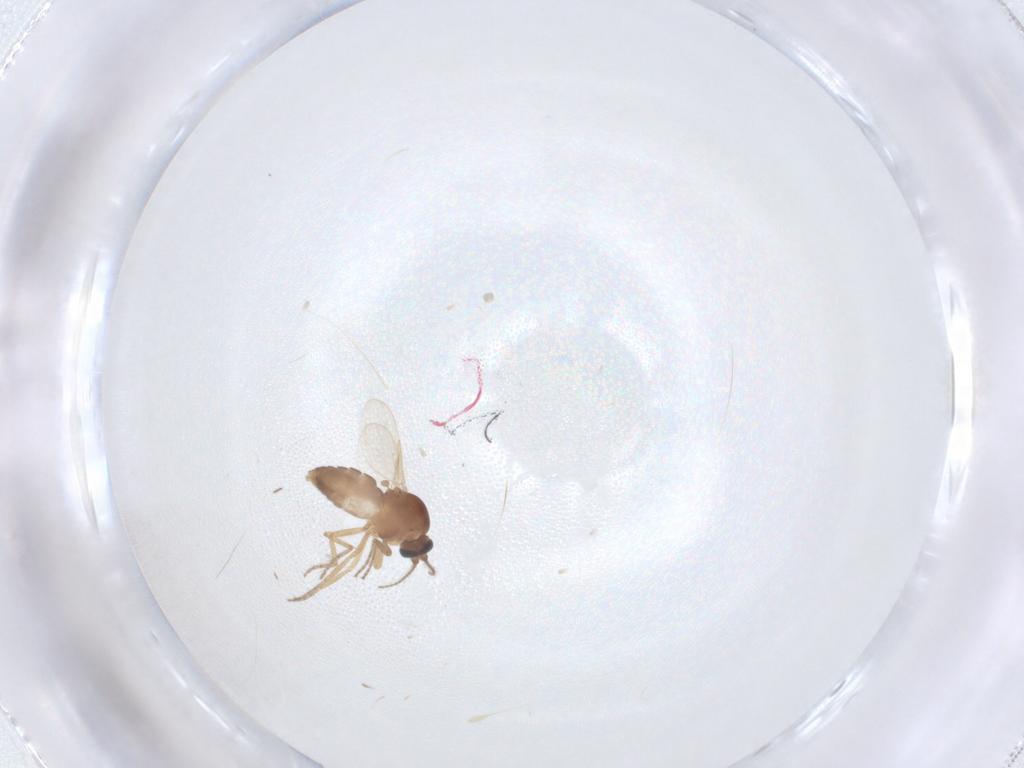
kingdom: Animalia
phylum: Arthropoda
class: Insecta
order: Diptera
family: Ceratopogonidae
